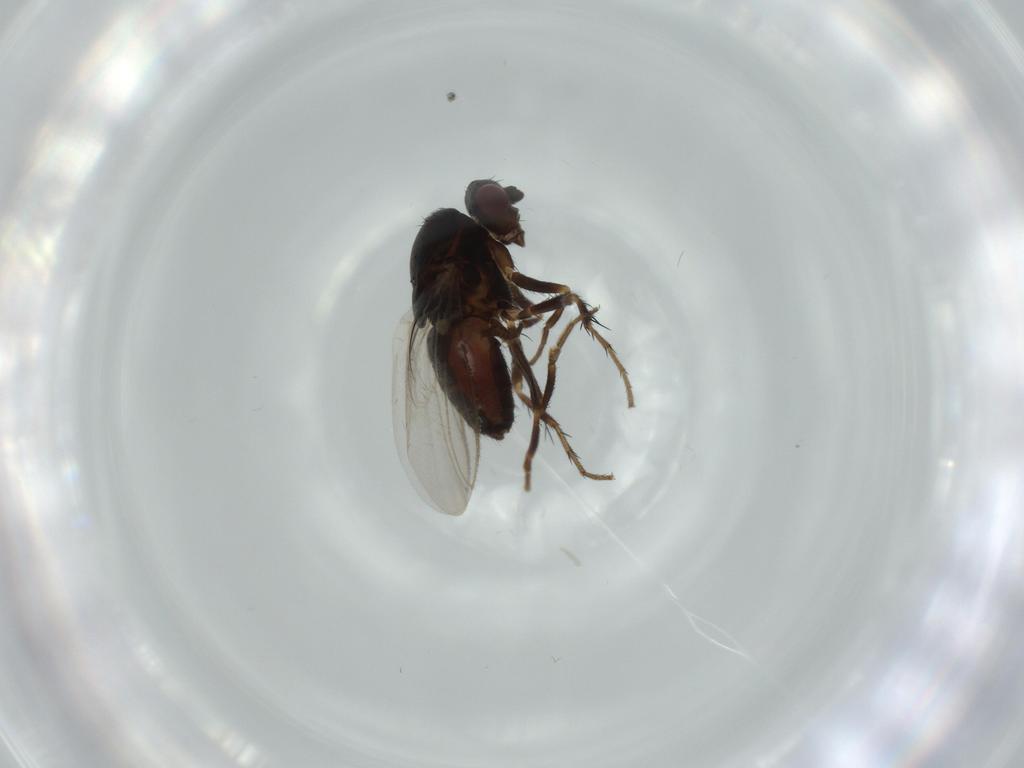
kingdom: Animalia
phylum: Arthropoda
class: Insecta
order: Diptera
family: Sphaeroceridae
